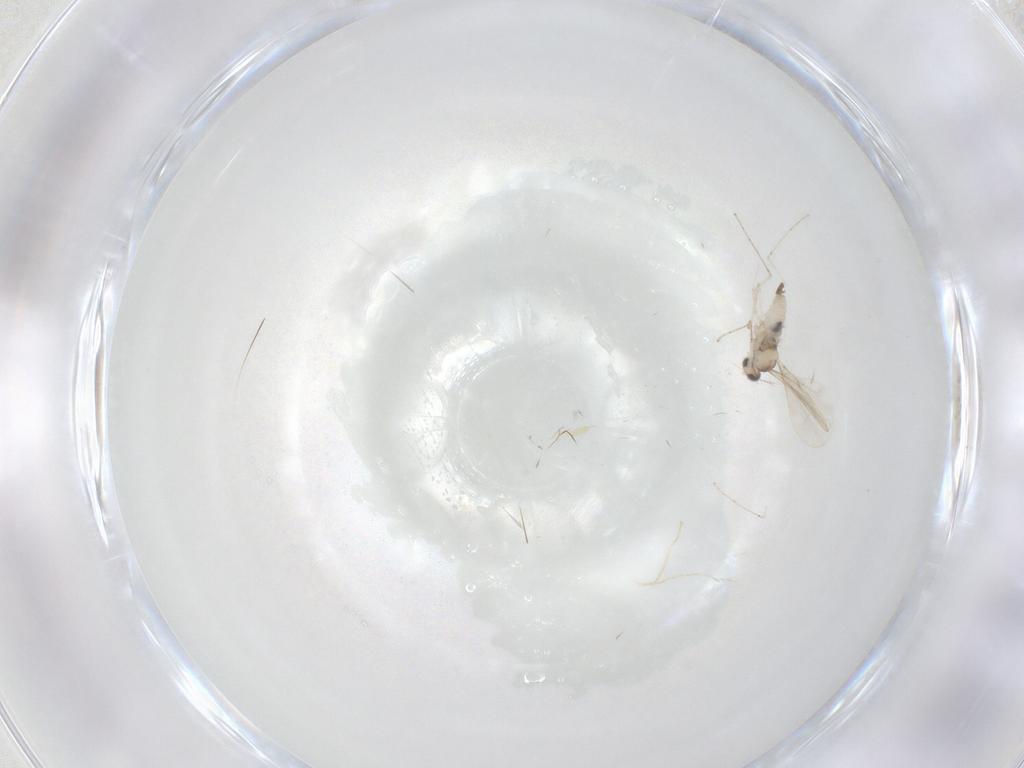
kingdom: Animalia
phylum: Arthropoda
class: Insecta
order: Diptera
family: Cecidomyiidae
